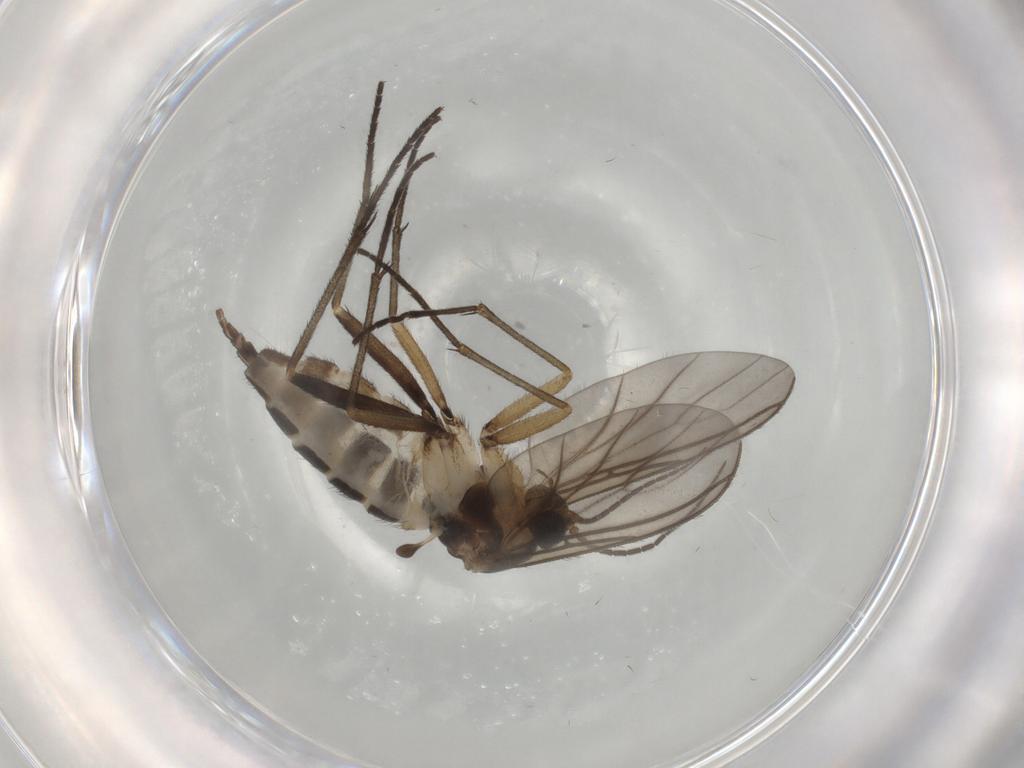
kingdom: Animalia
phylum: Arthropoda
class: Insecta
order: Diptera
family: Sciaridae
